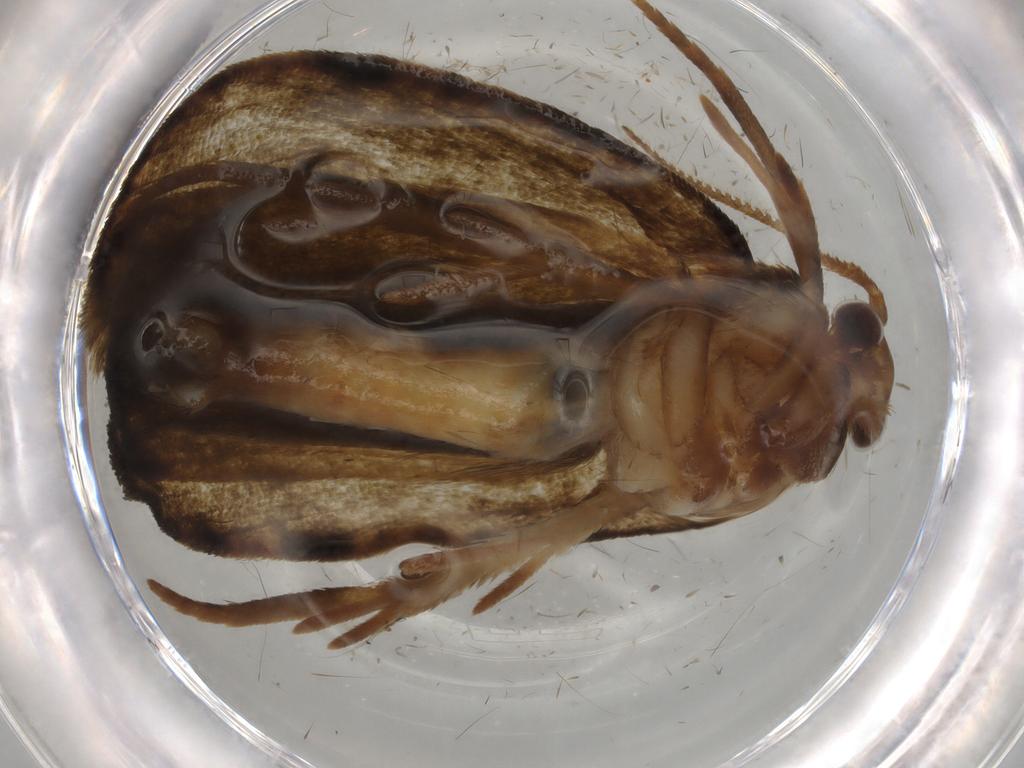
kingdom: Animalia
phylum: Arthropoda
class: Insecta
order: Lepidoptera
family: Geometridae
